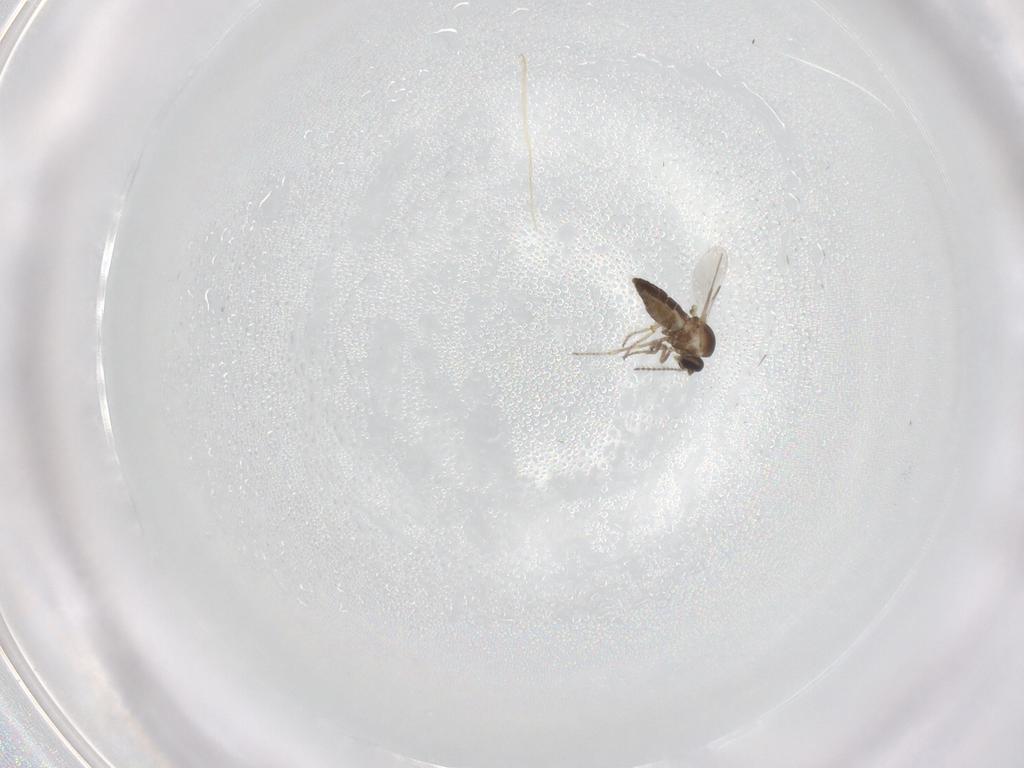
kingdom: Animalia
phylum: Arthropoda
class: Insecta
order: Diptera
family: Ceratopogonidae
